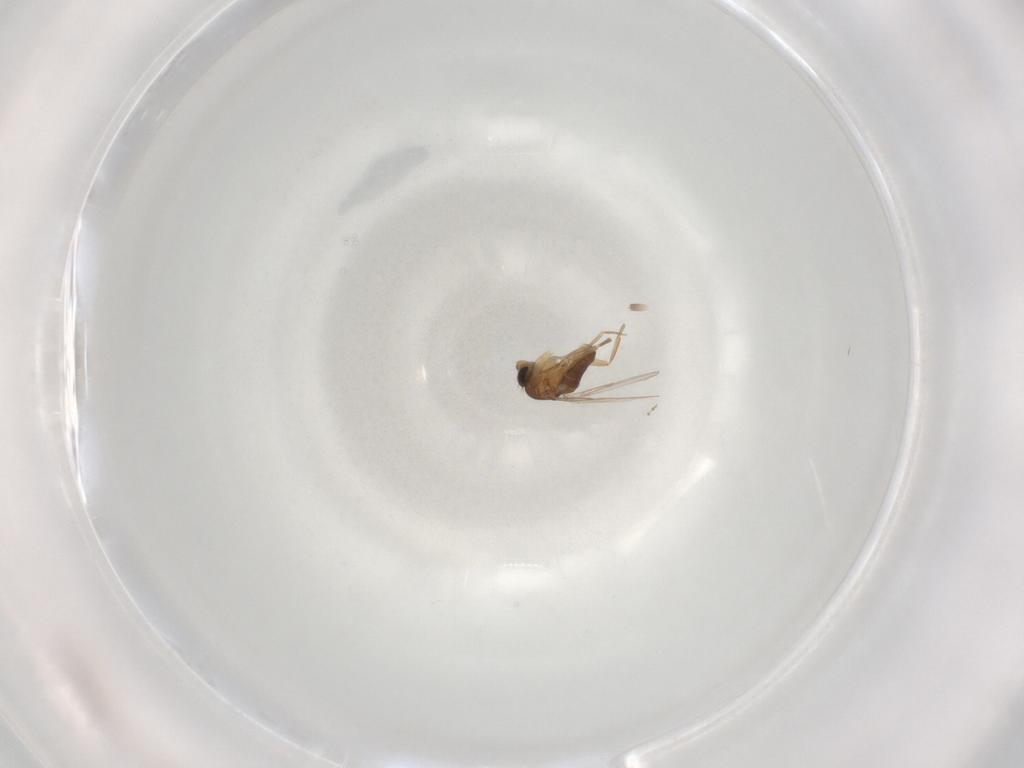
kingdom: Animalia
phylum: Arthropoda
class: Insecta
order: Diptera
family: Phoridae
